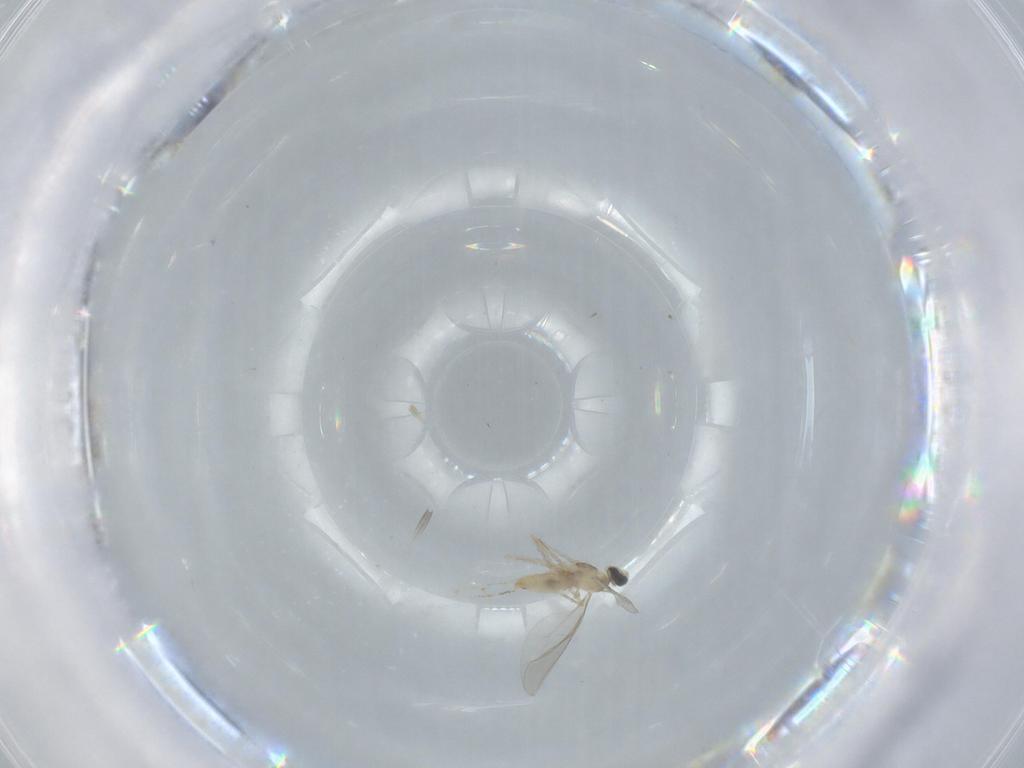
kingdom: Animalia
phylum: Arthropoda
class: Insecta
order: Diptera
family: Cecidomyiidae
